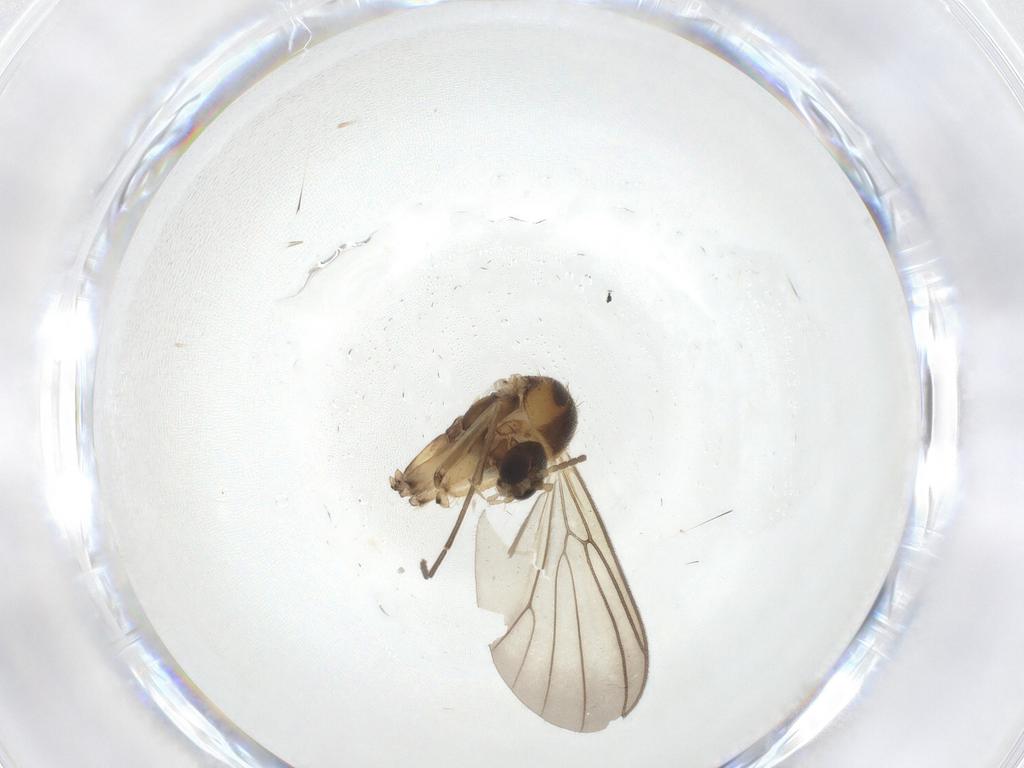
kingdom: Animalia
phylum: Arthropoda
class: Insecta
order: Diptera
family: Mycetophilidae
